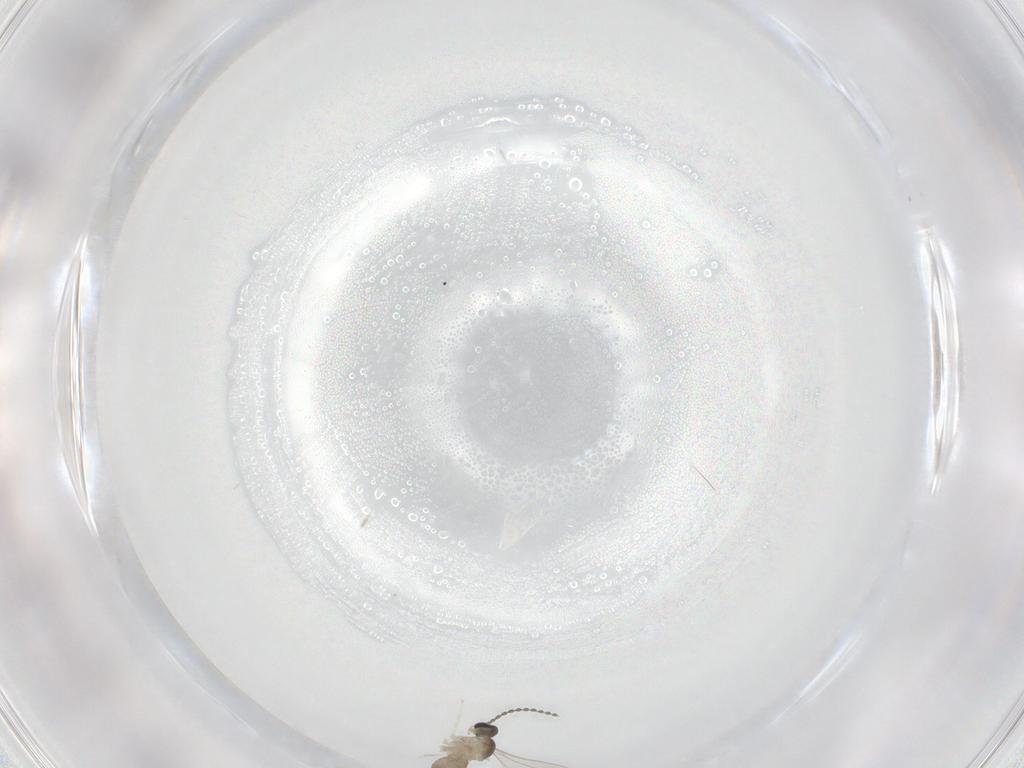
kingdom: Animalia
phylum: Arthropoda
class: Insecta
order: Diptera
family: Cecidomyiidae
